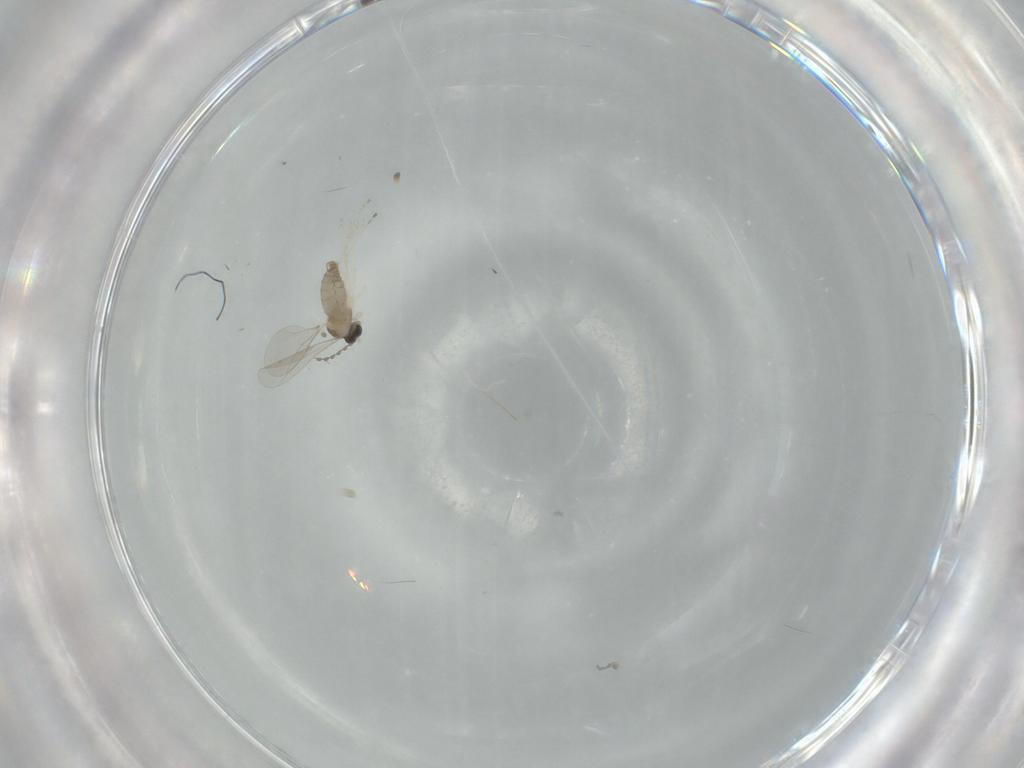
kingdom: Animalia
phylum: Arthropoda
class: Insecta
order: Diptera
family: Cecidomyiidae
